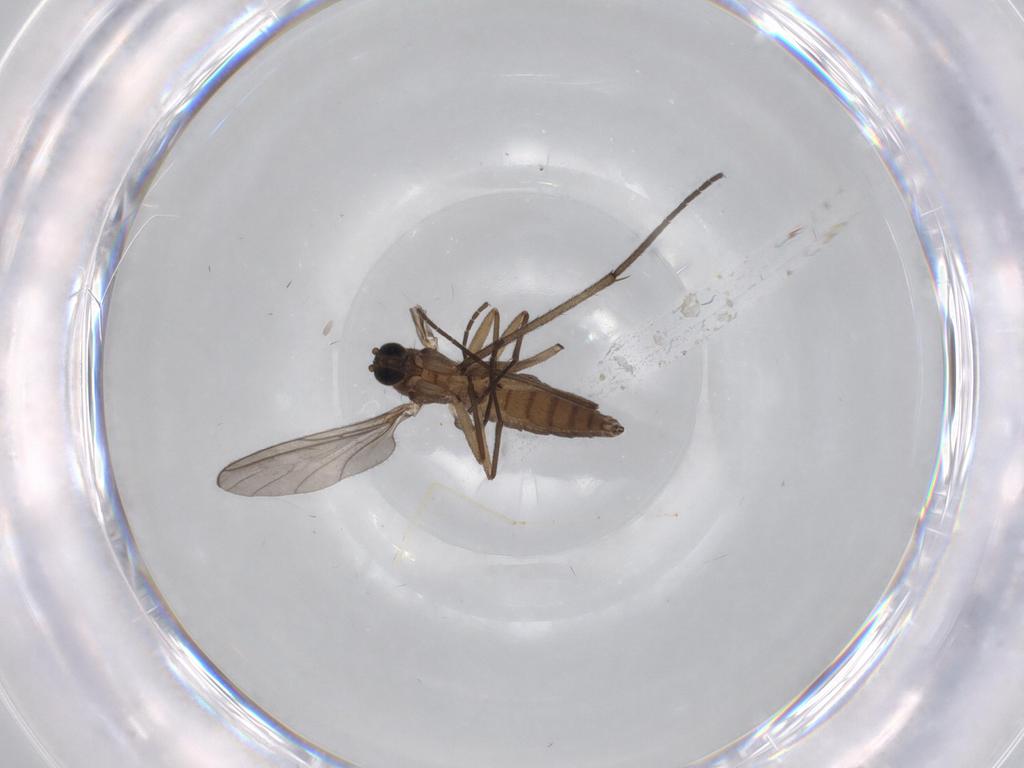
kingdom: Animalia
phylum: Arthropoda
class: Insecta
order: Diptera
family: Sciaridae
